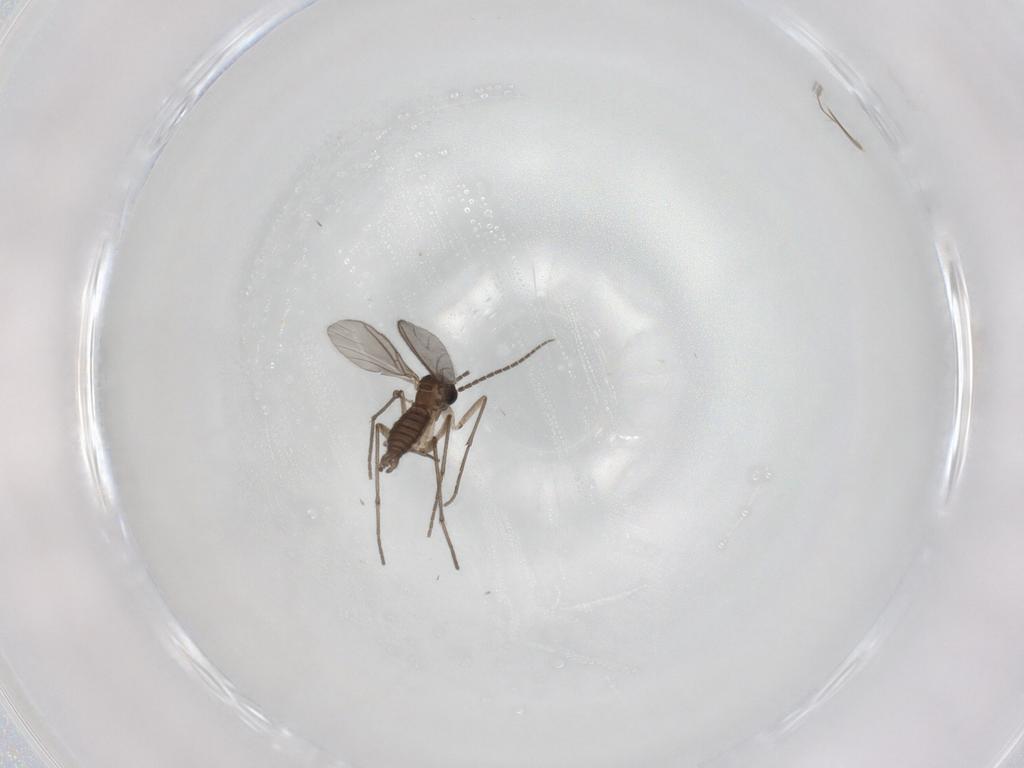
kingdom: Animalia
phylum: Arthropoda
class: Insecta
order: Diptera
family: Sciaridae
